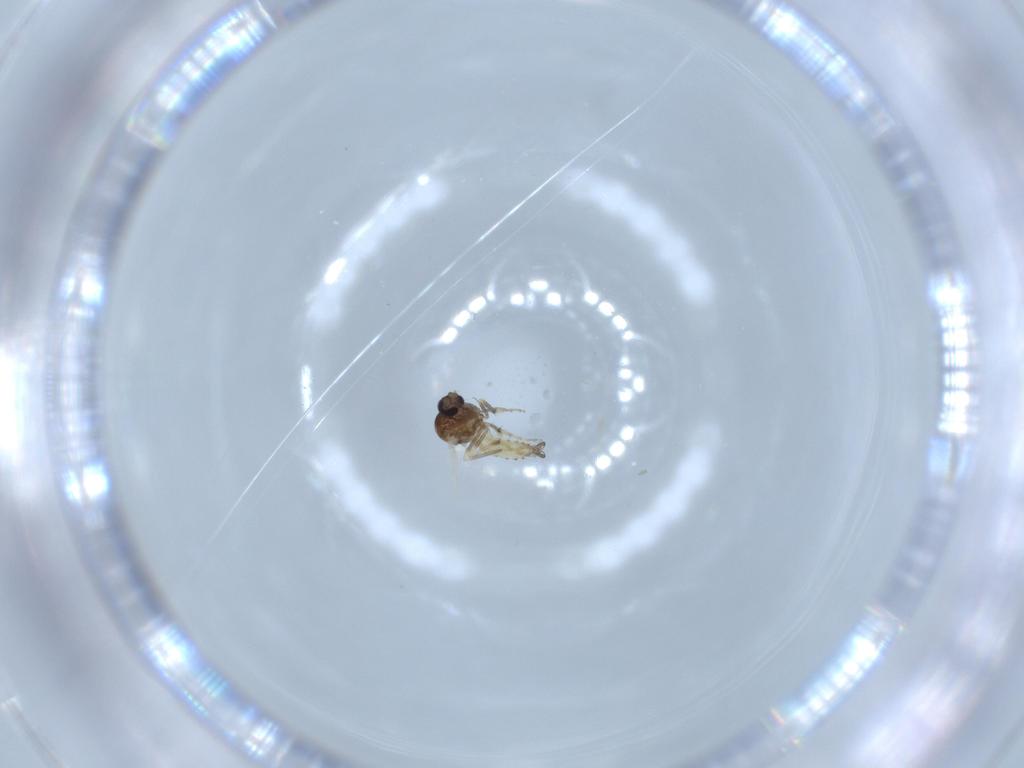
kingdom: Animalia
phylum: Arthropoda
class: Insecta
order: Diptera
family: Ceratopogonidae
